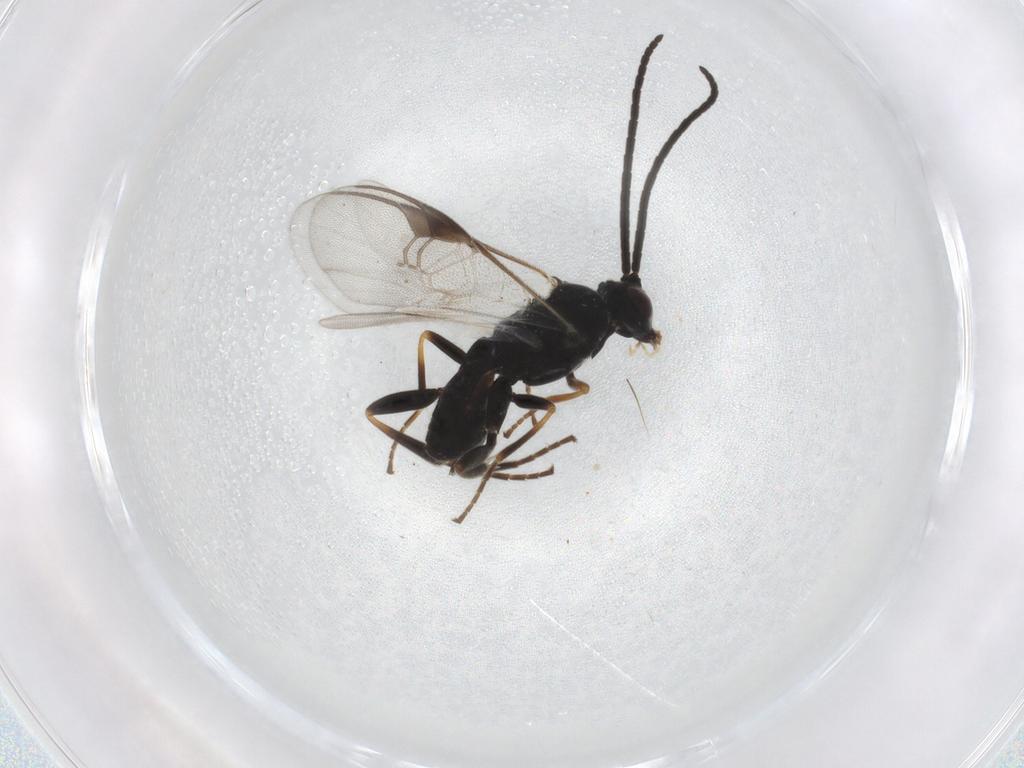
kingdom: Animalia
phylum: Arthropoda
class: Insecta
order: Hymenoptera
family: Braconidae
